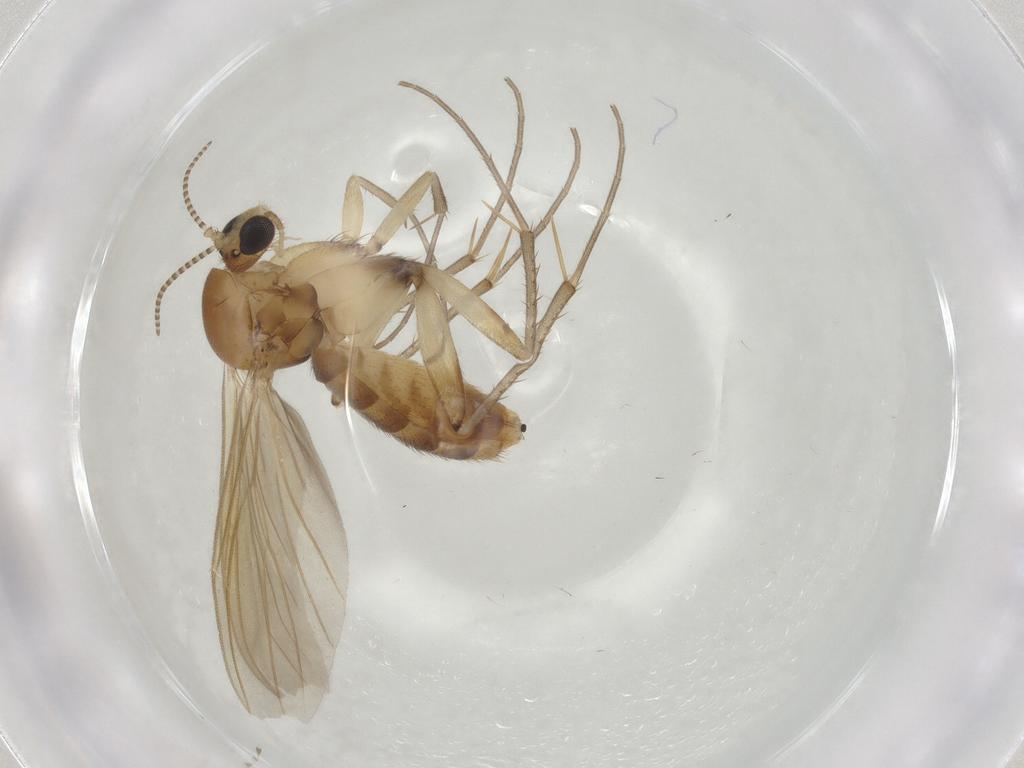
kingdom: Animalia
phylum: Arthropoda
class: Insecta
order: Diptera
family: Mycetophilidae
